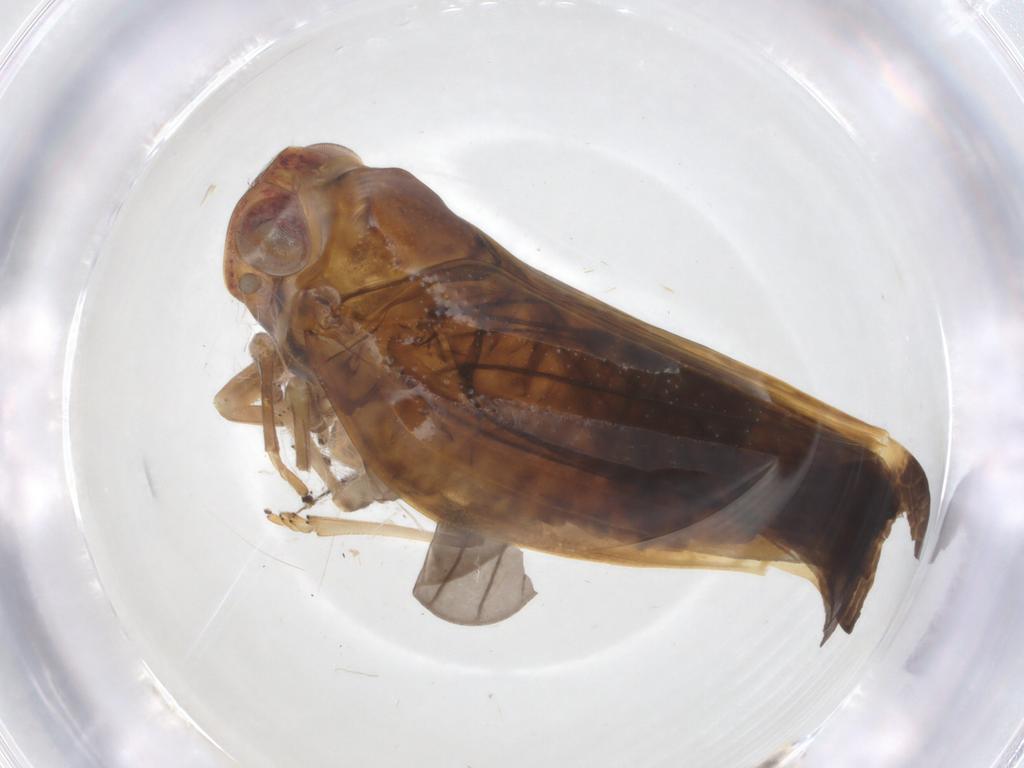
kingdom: Animalia
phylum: Arthropoda
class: Insecta
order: Hemiptera
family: Nogodinidae
